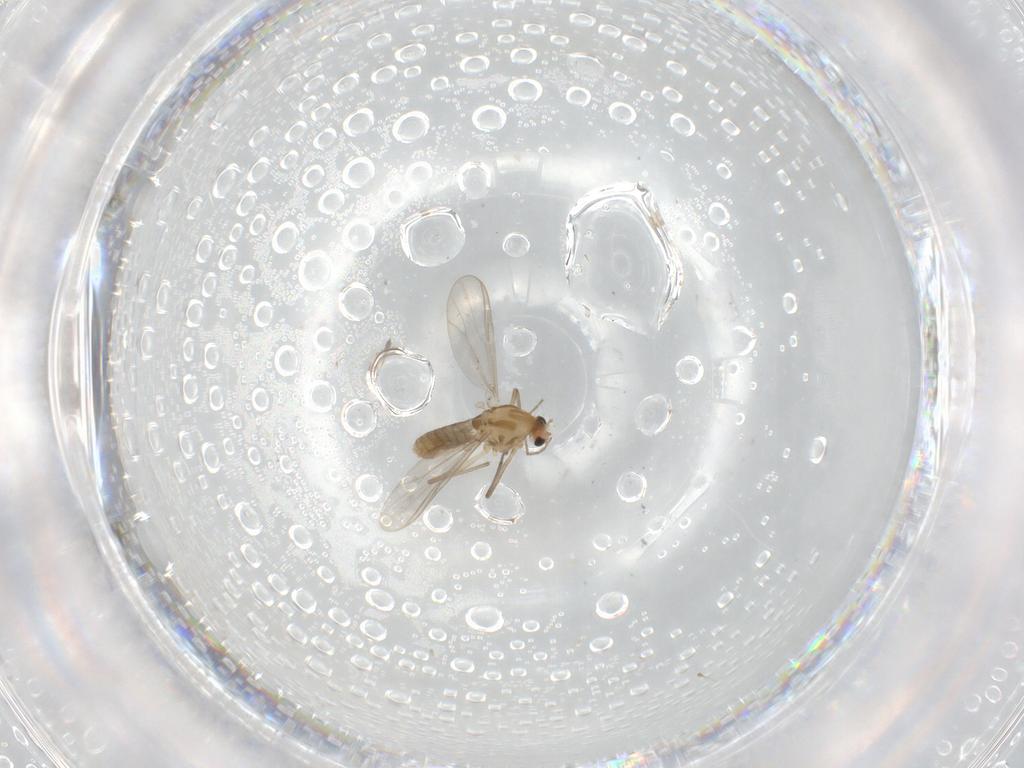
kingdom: Animalia
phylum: Arthropoda
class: Insecta
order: Diptera
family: Chironomidae
